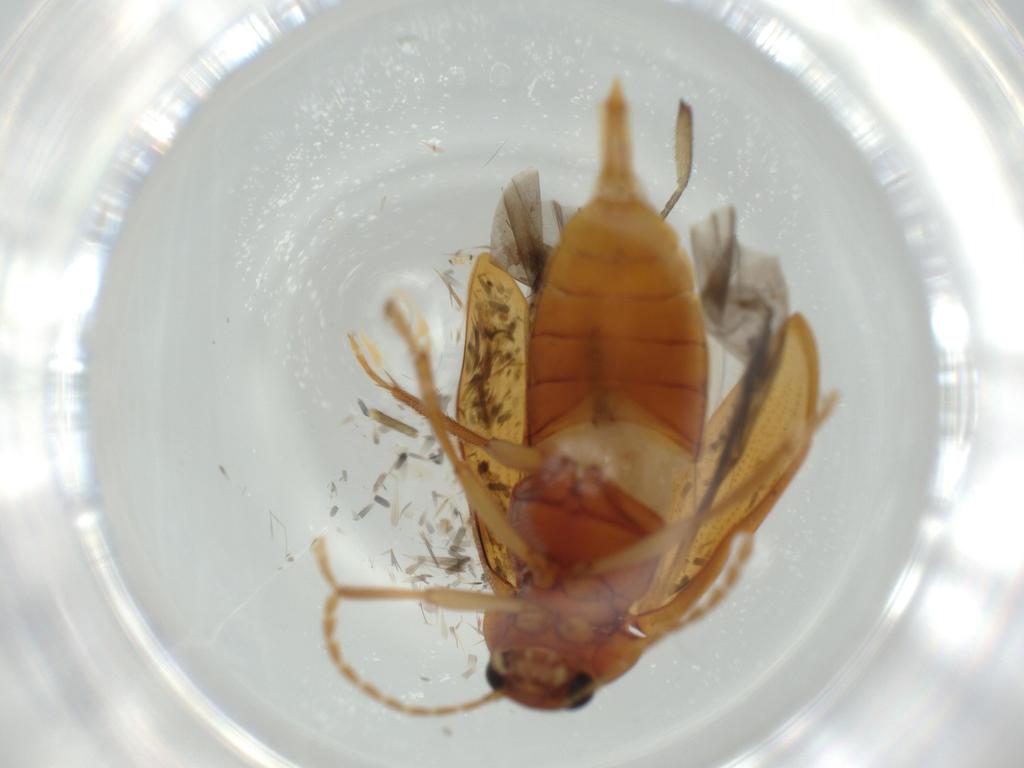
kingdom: Animalia
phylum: Arthropoda
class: Insecta
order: Coleoptera
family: Ptilodactylidae
